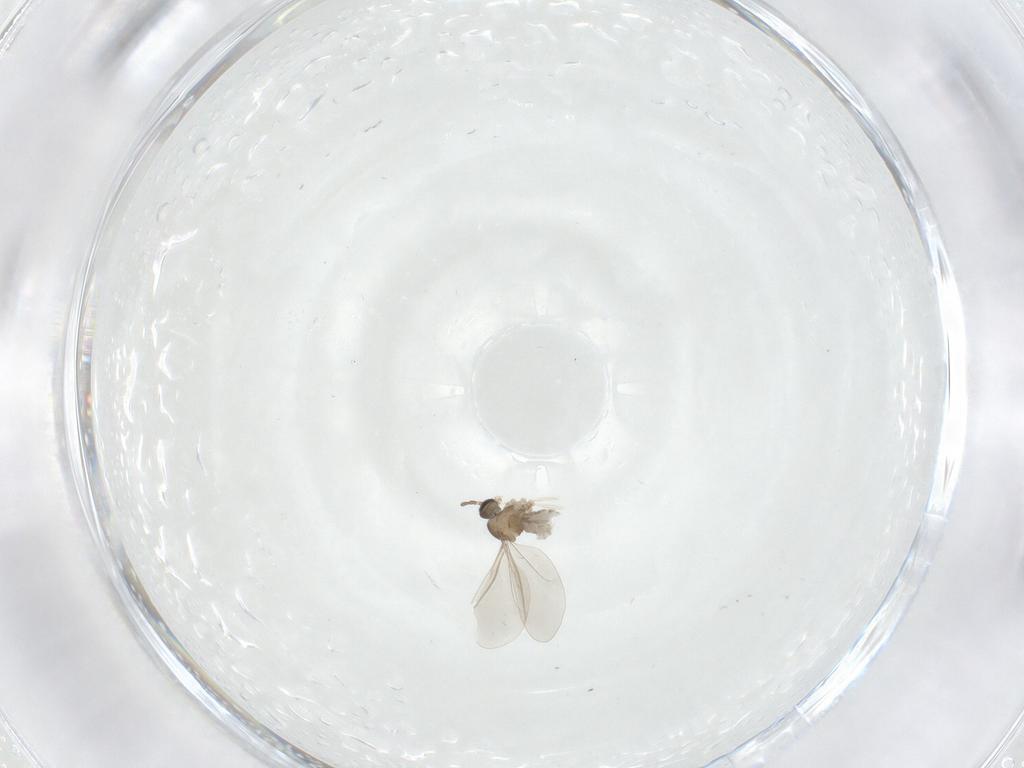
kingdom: Animalia
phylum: Arthropoda
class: Insecta
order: Diptera
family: Cecidomyiidae
